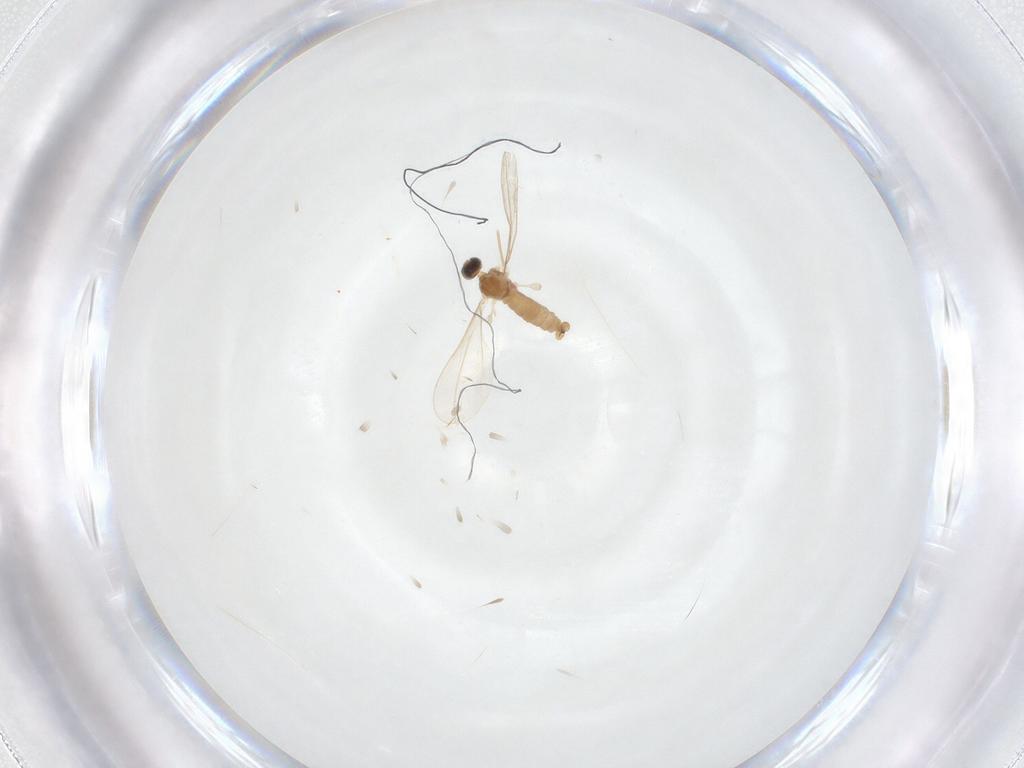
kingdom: Animalia
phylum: Arthropoda
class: Insecta
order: Diptera
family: Cecidomyiidae
